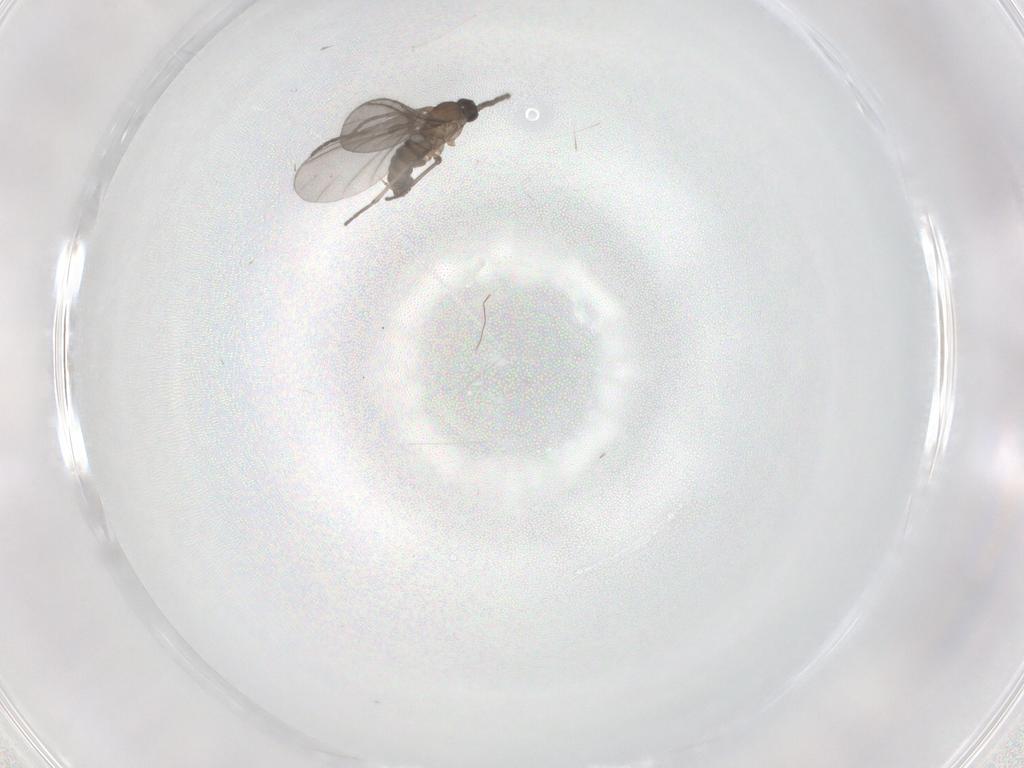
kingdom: Animalia
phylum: Arthropoda
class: Insecta
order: Diptera
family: Sciaridae
